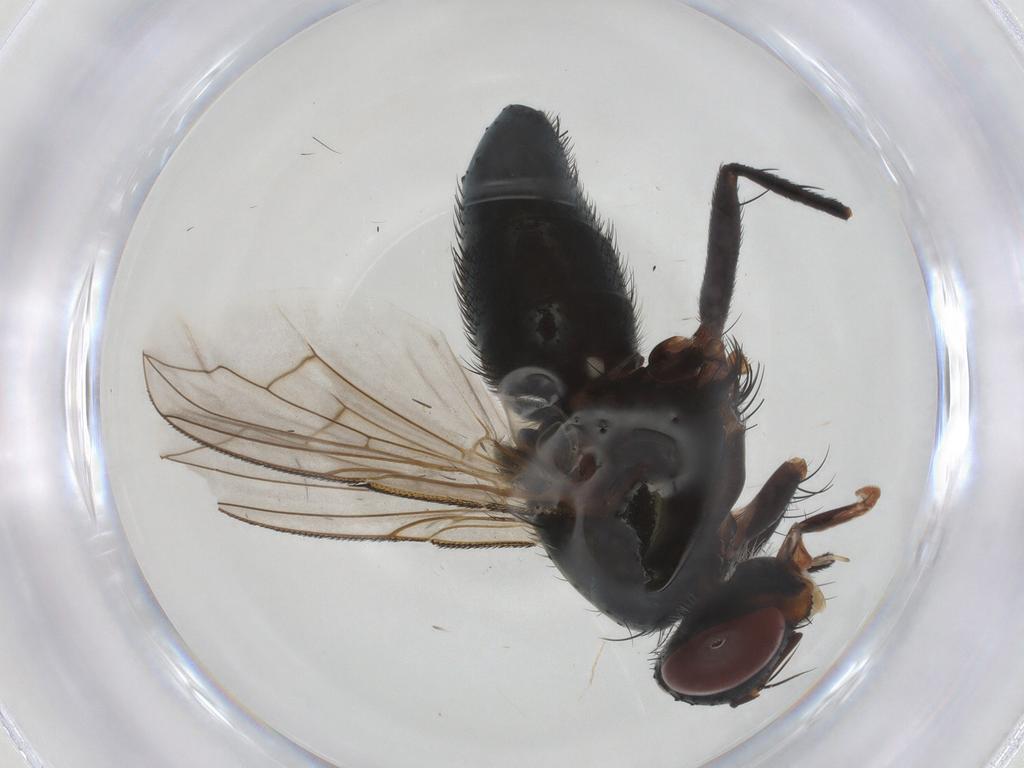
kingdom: Animalia
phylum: Arthropoda
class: Insecta
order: Diptera
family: Tachinidae
